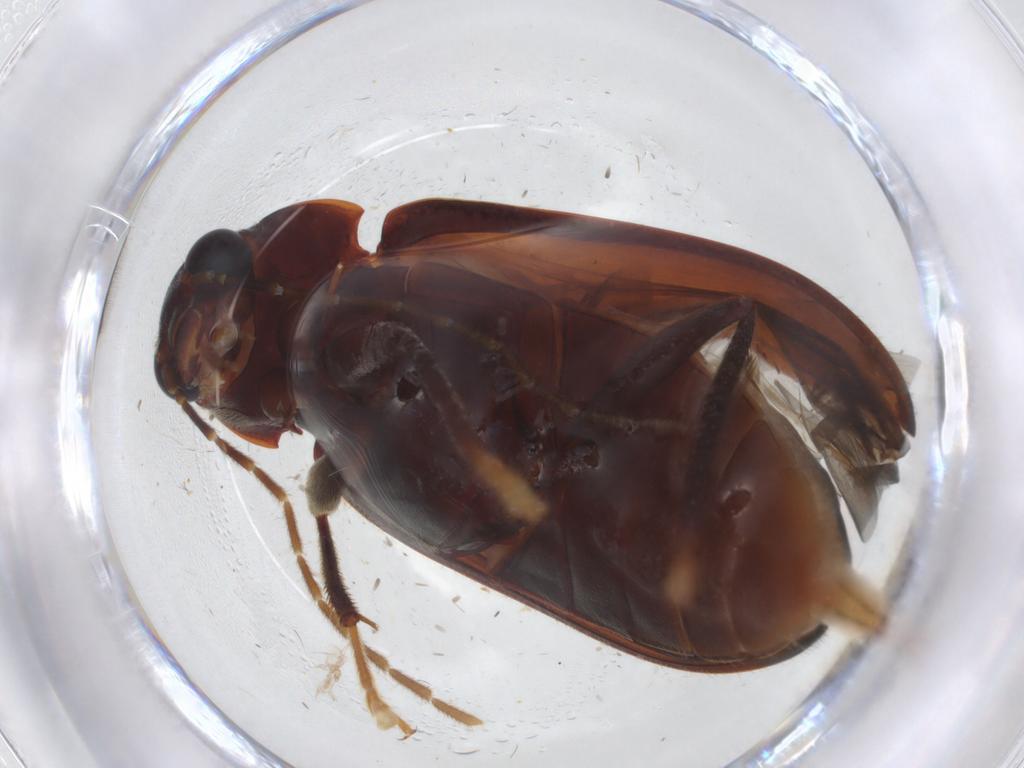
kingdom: Animalia
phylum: Arthropoda
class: Insecta
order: Coleoptera
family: Ptilodactylidae
